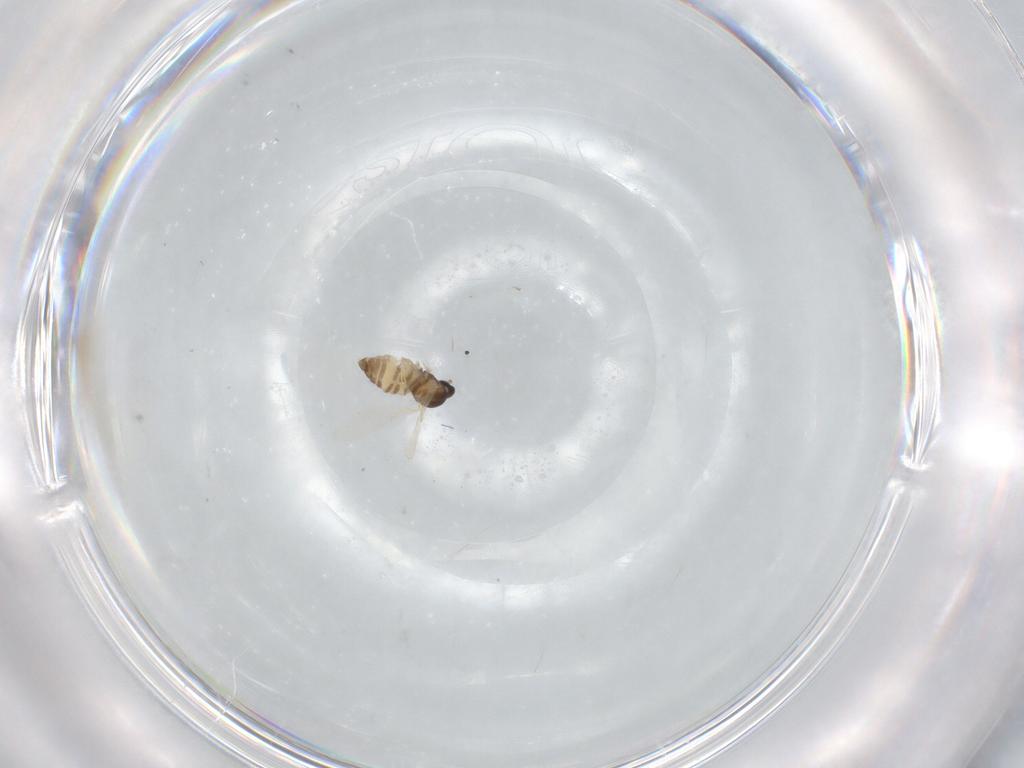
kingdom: Animalia
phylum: Arthropoda
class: Insecta
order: Diptera
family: Cecidomyiidae
